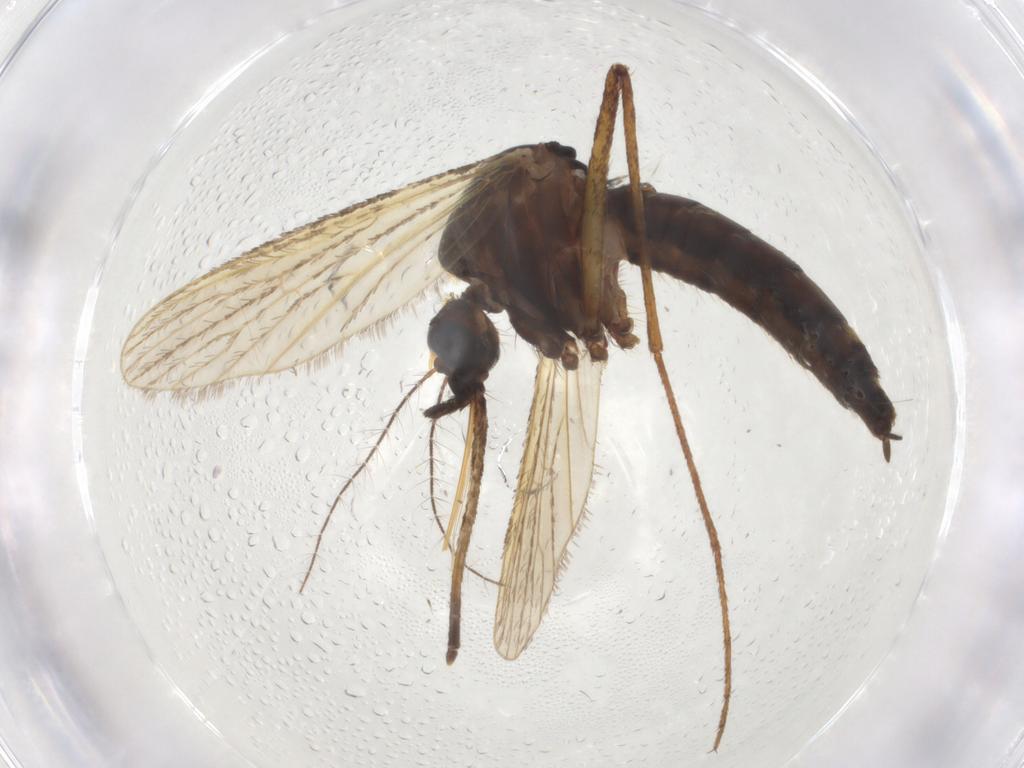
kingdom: Animalia
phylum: Arthropoda
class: Insecta
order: Diptera
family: Culicidae
